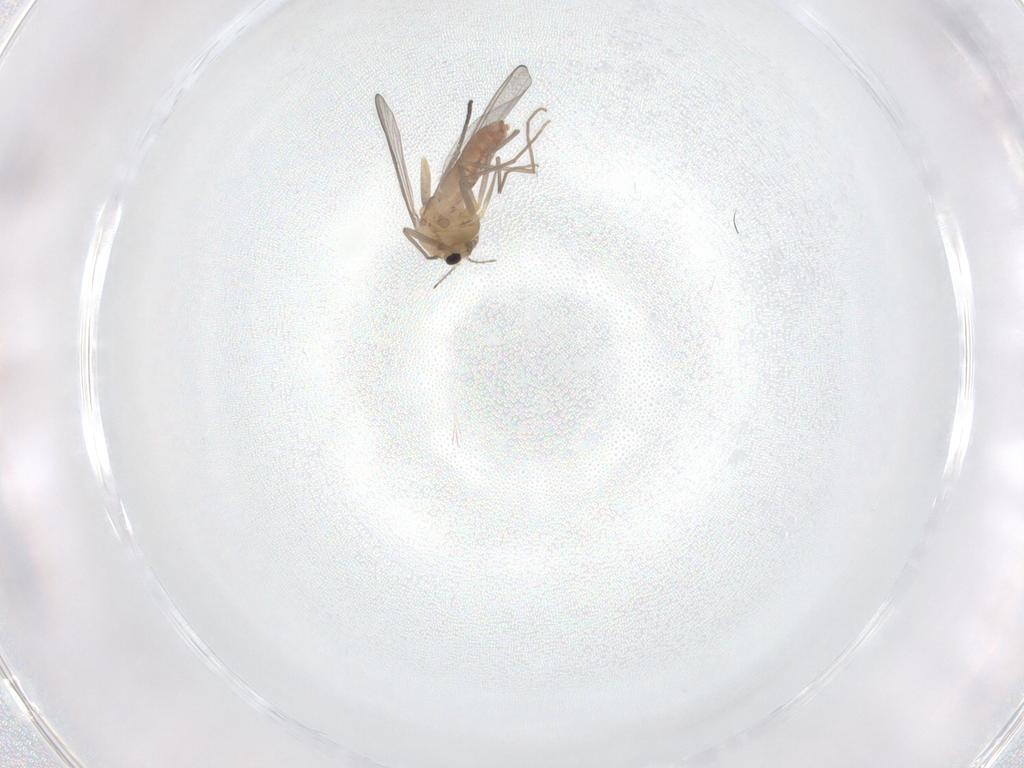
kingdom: Animalia
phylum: Arthropoda
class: Insecta
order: Diptera
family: Chironomidae
